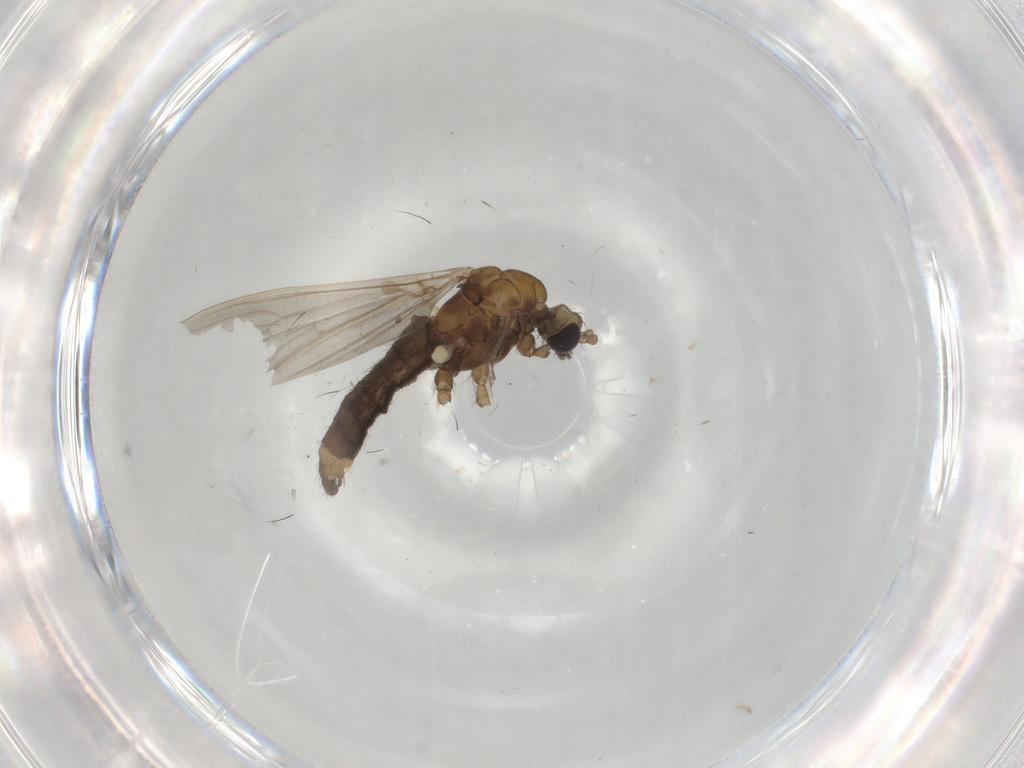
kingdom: Animalia
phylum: Arthropoda
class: Insecta
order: Diptera
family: Limoniidae
